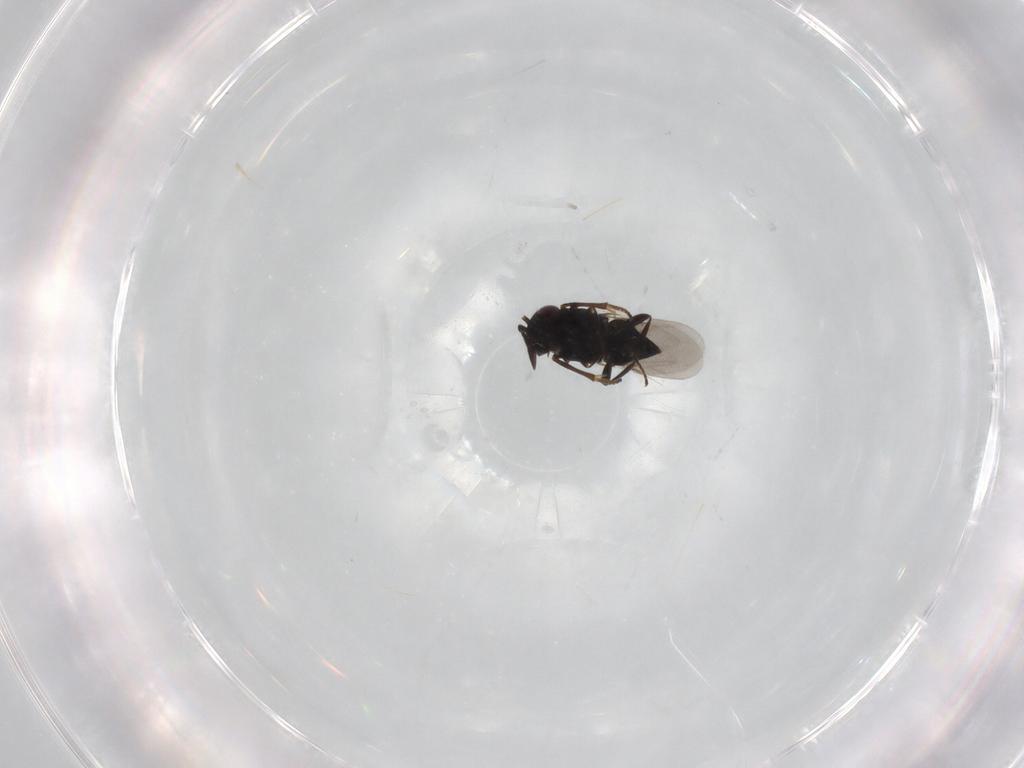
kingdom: Animalia
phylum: Arthropoda
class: Insecta
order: Hymenoptera
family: Encyrtidae
